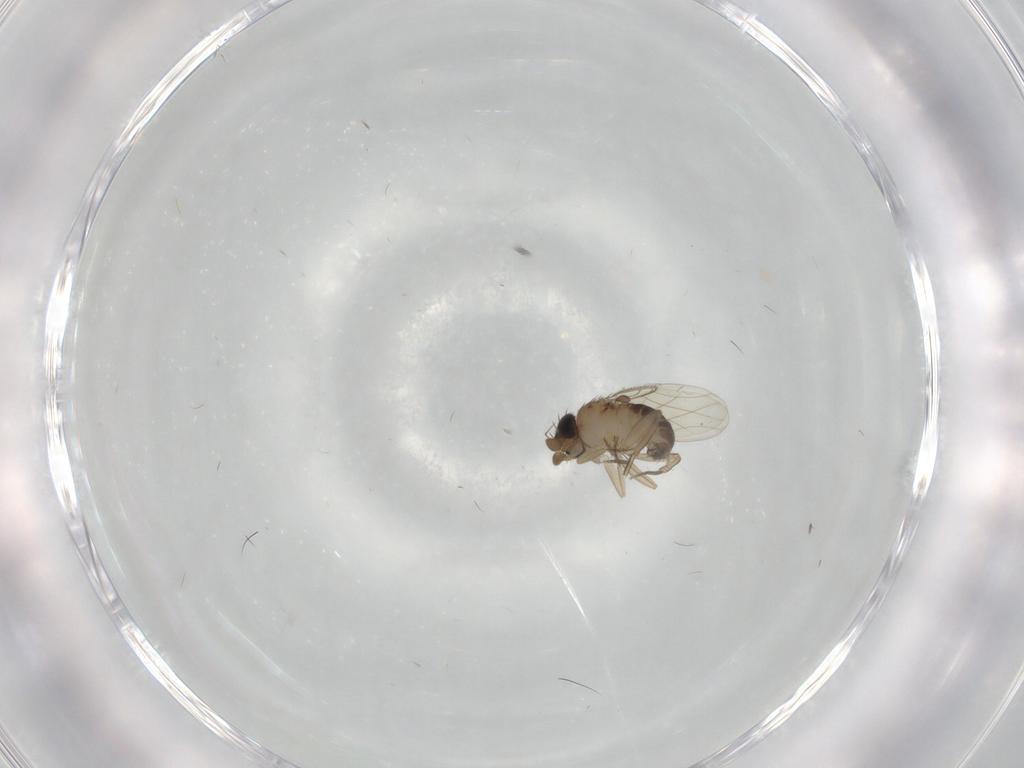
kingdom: Animalia
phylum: Arthropoda
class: Insecta
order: Diptera
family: Phoridae
